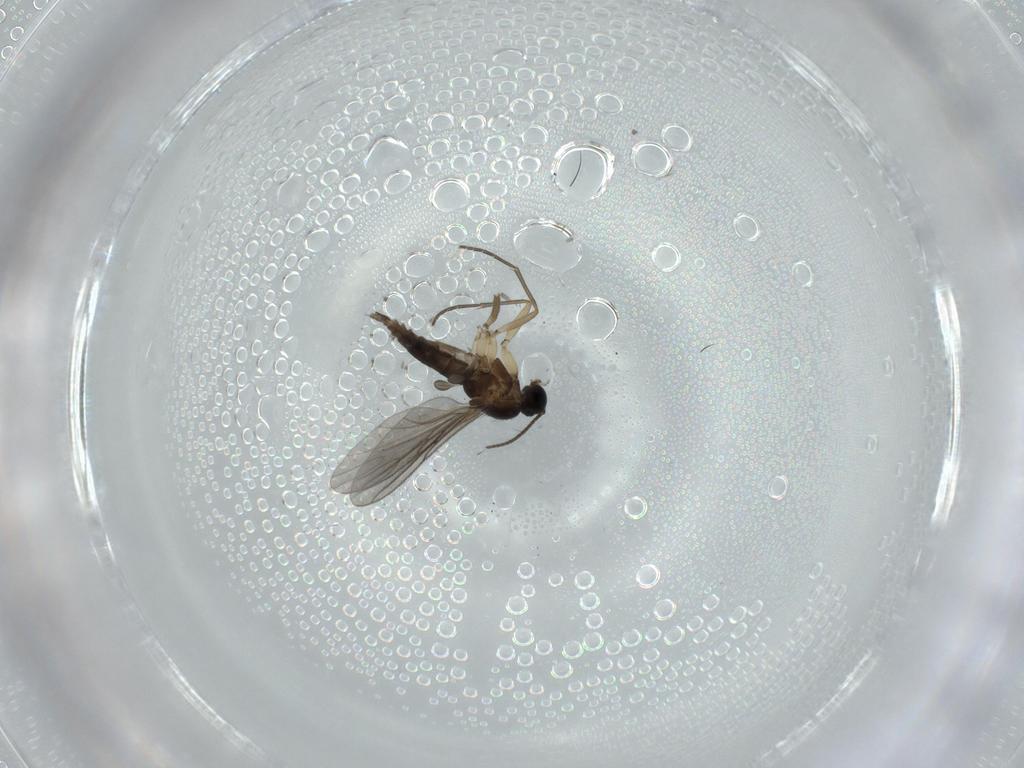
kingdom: Animalia
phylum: Arthropoda
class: Insecta
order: Diptera
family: Sciaridae
